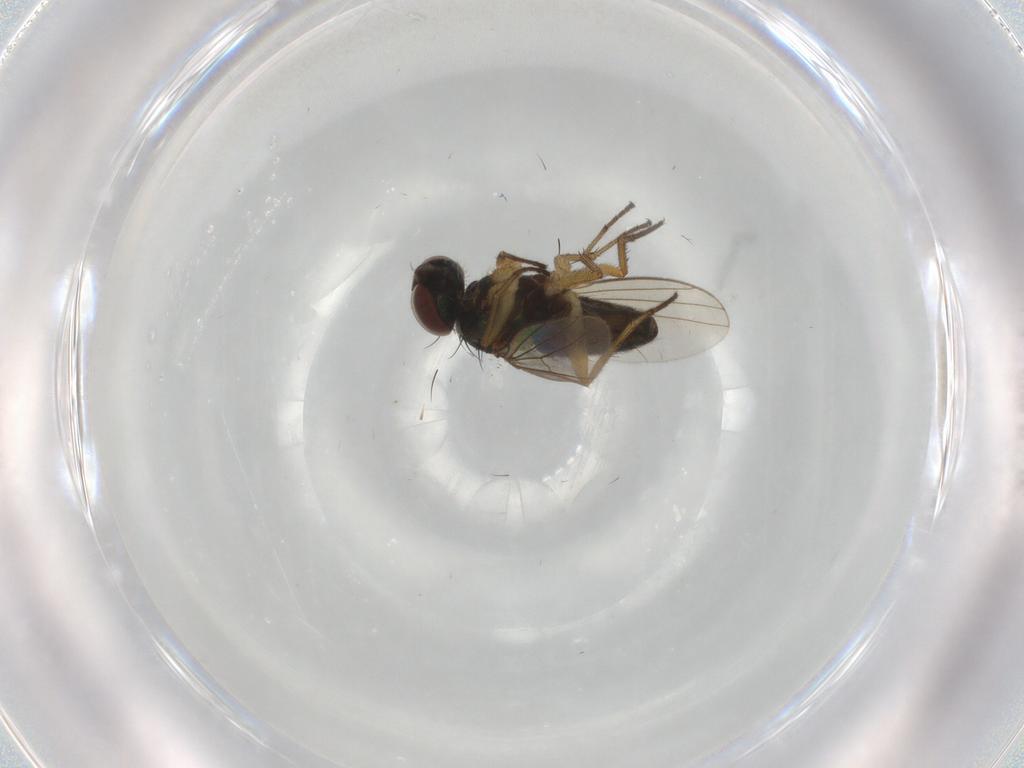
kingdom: Animalia
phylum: Arthropoda
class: Insecta
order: Diptera
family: Dolichopodidae
